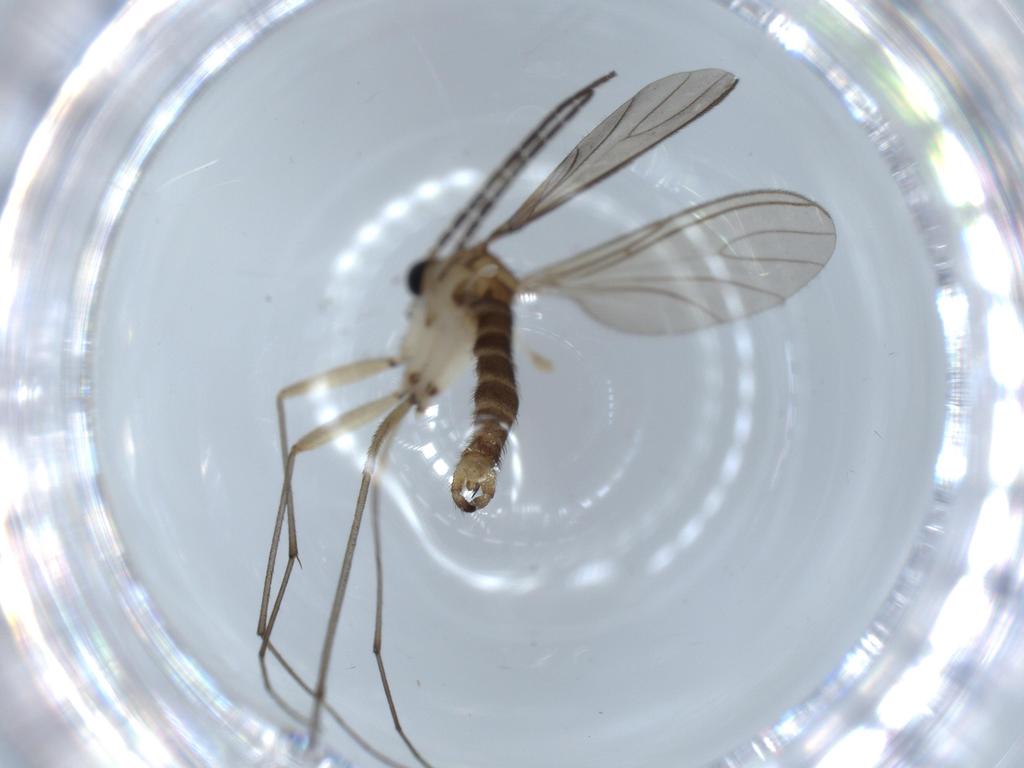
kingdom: Animalia
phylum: Arthropoda
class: Insecta
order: Diptera
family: Sciaridae
